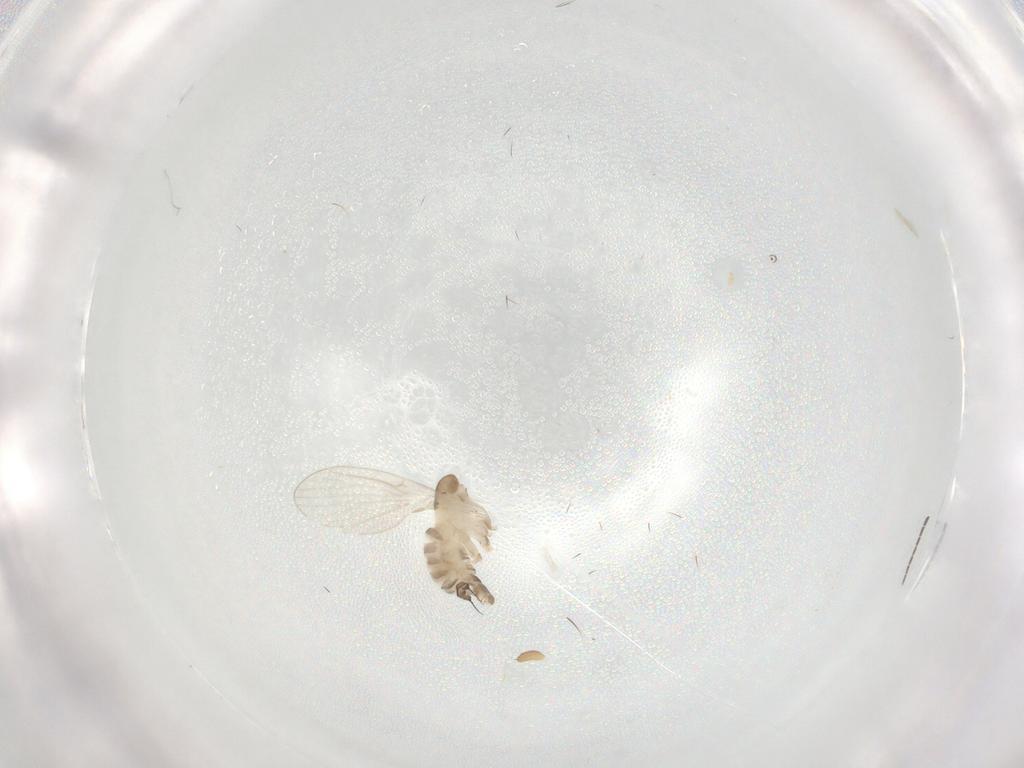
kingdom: Animalia
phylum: Arthropoda
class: Insecta
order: Diptera
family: Psychodidae
